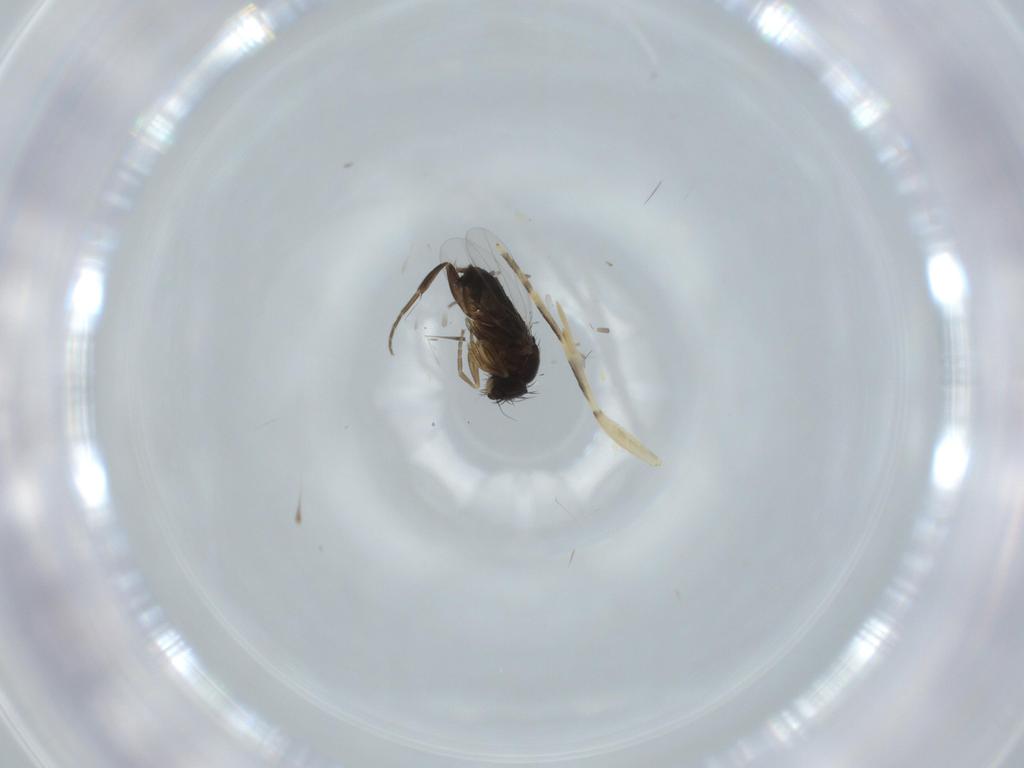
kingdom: Animalia
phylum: Arthropoda
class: Insecta
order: Diptera
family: Phoridae
